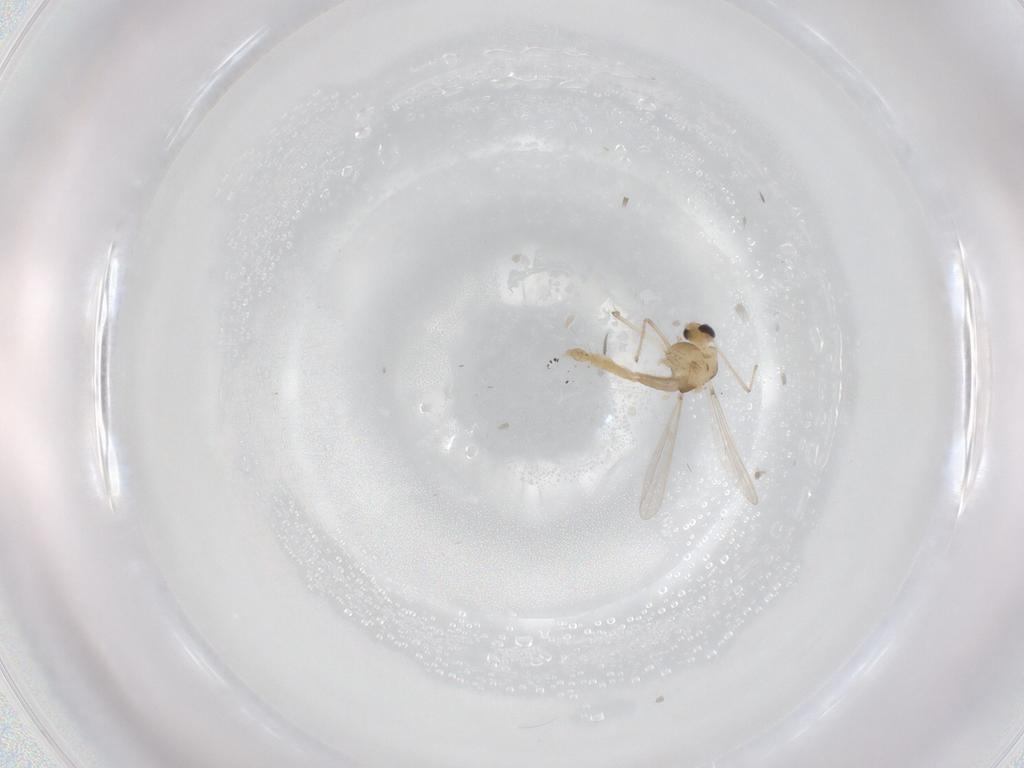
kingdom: Animalia
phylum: Arthropoda
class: Insecta
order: Diptera
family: Chironomidae
